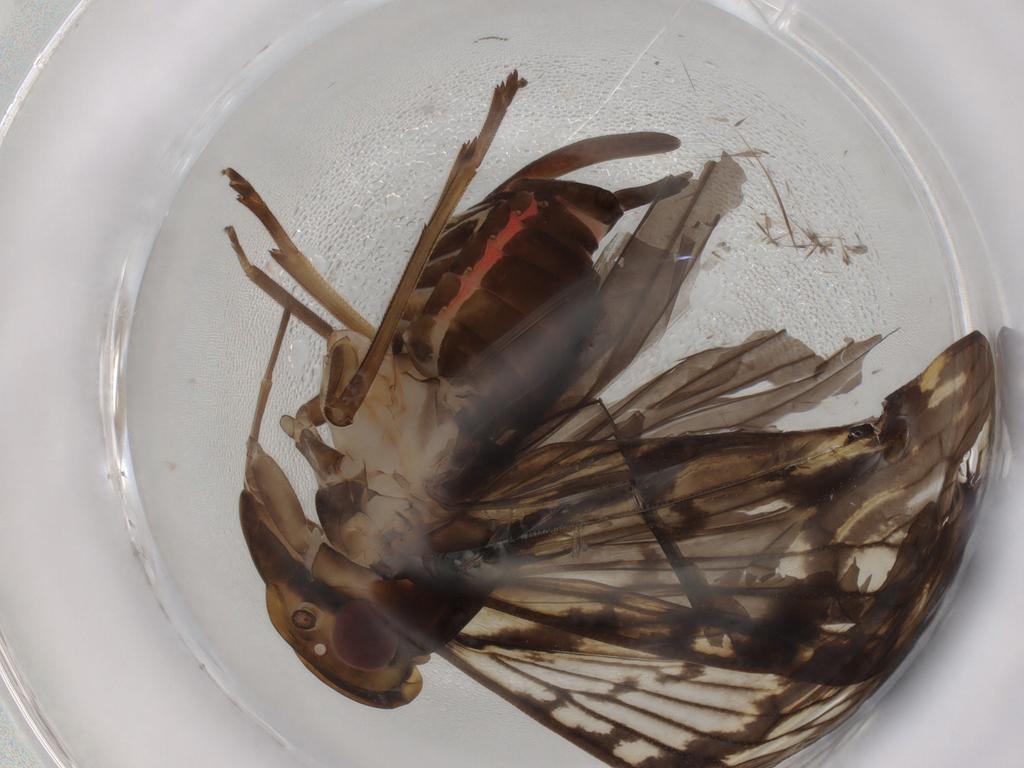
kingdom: Animalia
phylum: Arthropoda
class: Insecta
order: Hemiptera
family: Cixiidae
